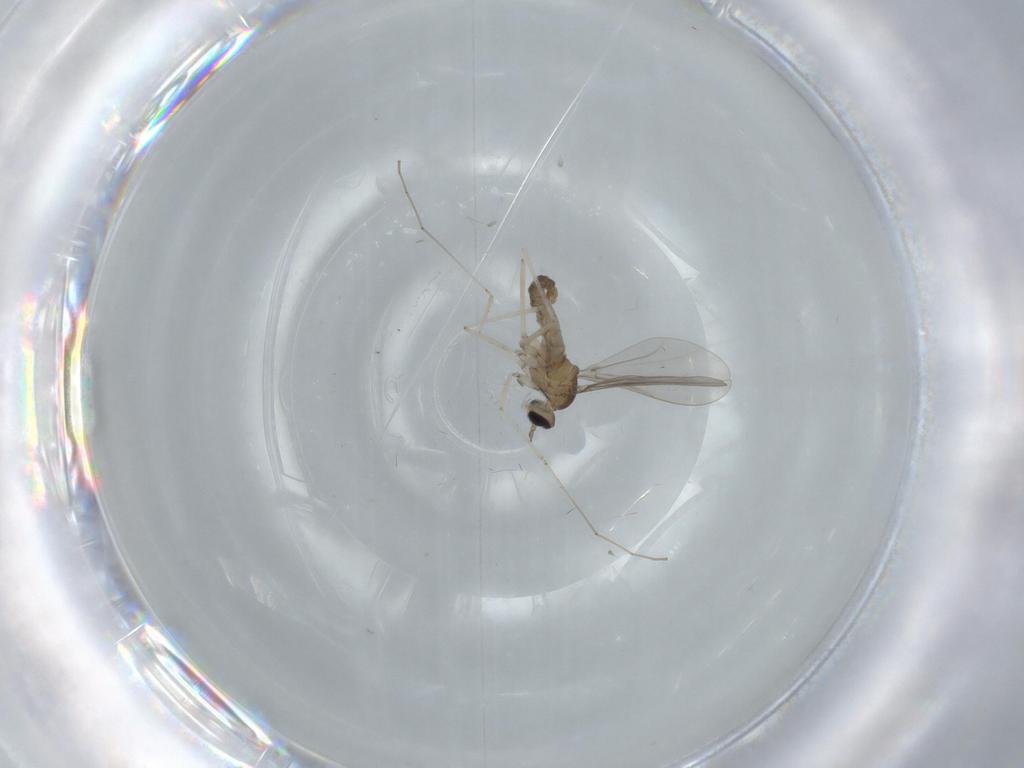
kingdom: Animalia
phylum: Arthropoda
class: Insecta
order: Diptera
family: Cecidomyiidae
